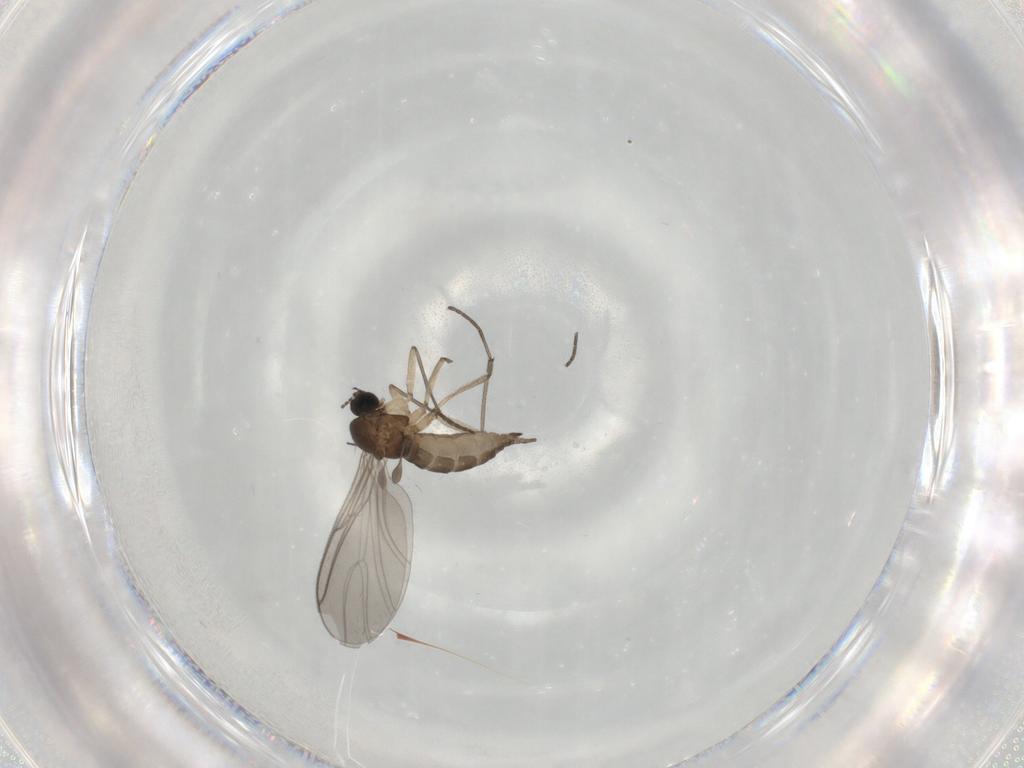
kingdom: Animalia
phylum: Arthropoda
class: Insecta
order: Diptera
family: Sciaridae
